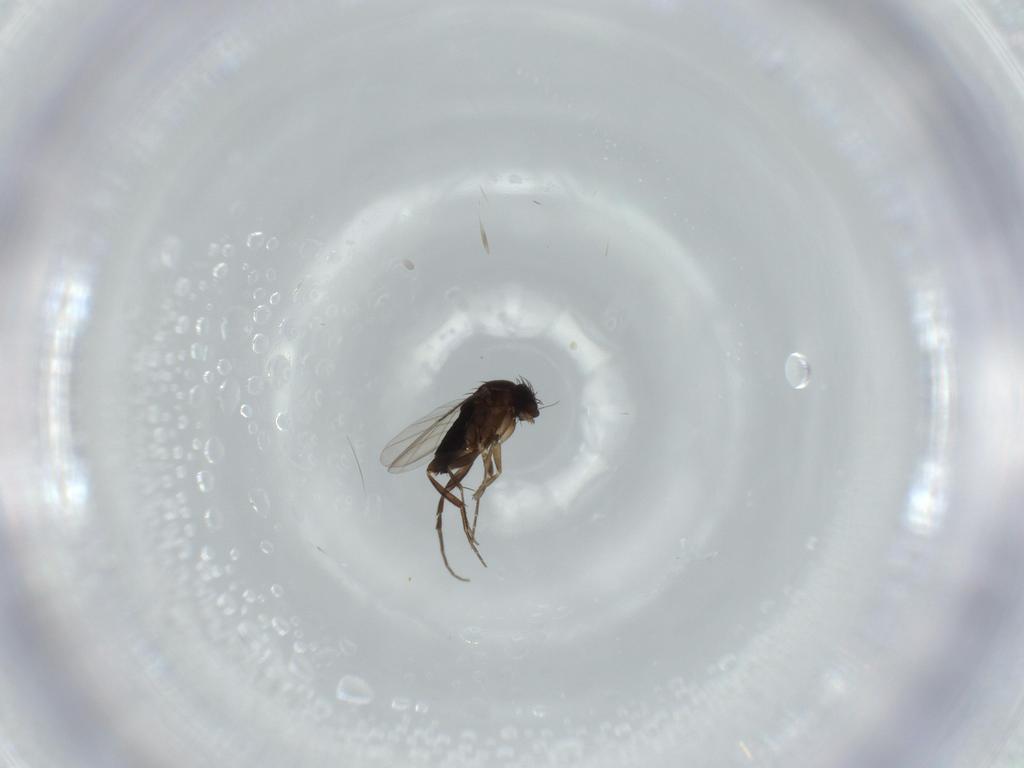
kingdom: Animalia
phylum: Arthropoda
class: Insecta
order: Diptera
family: Phoridae
